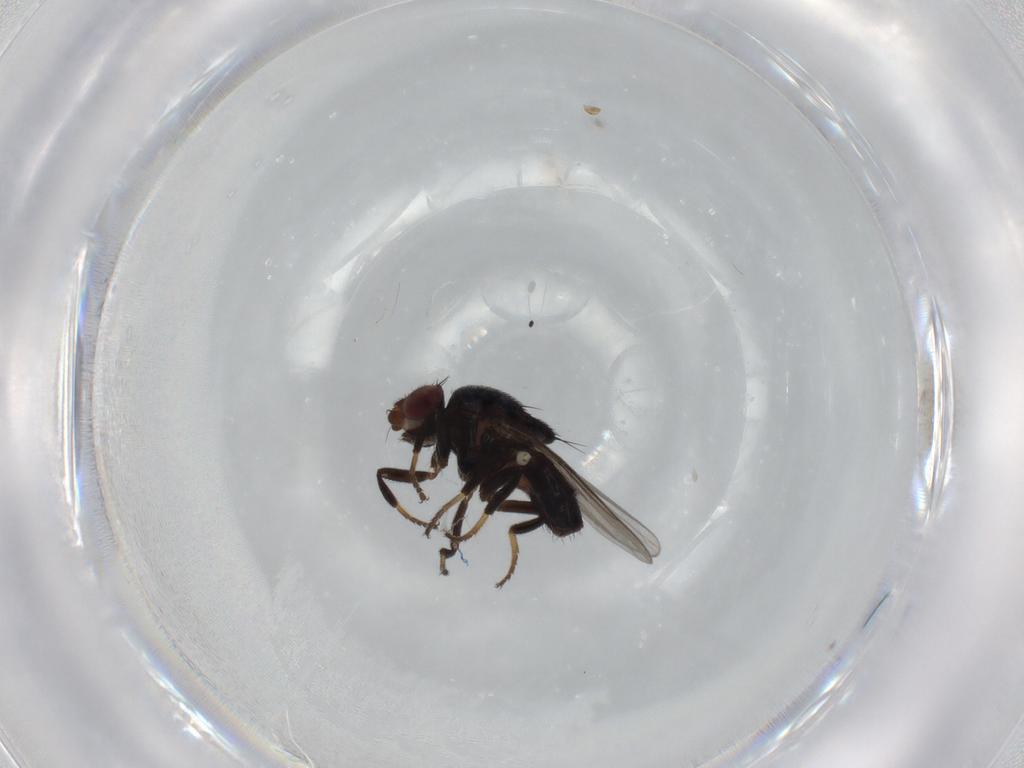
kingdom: Animalia
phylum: Arthropoda
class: Insecta
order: Diptera
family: Chloropidae
